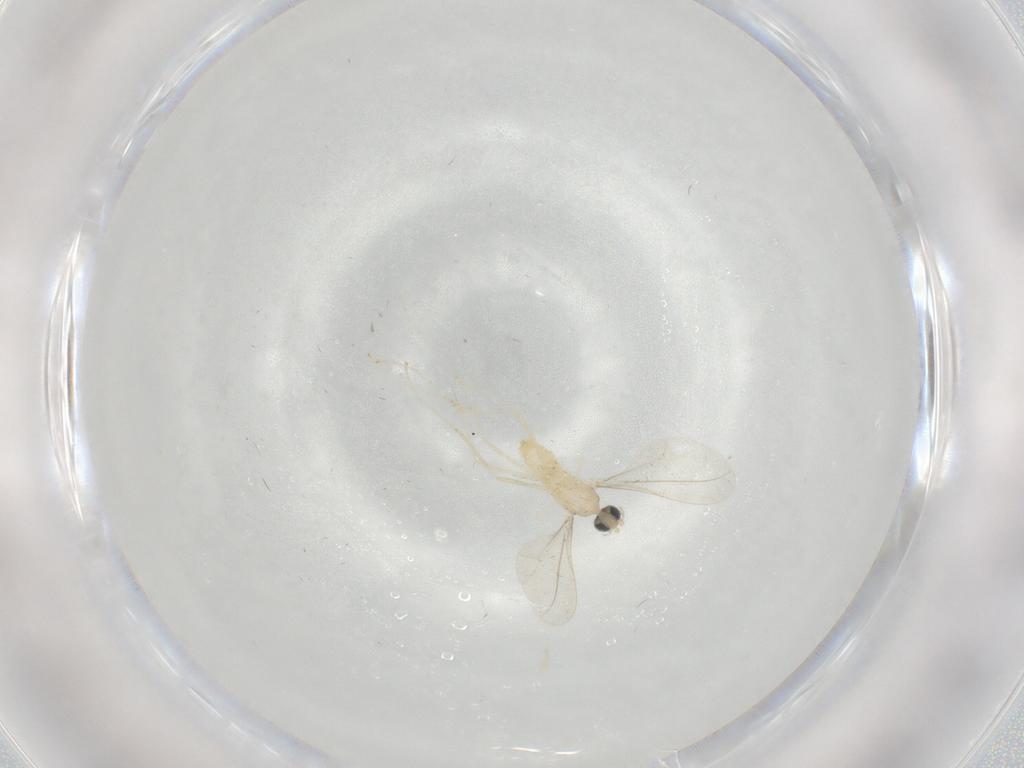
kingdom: Animalia
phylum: Arthropoda
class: Insecta
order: Diptera
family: Cecidomyiidae
